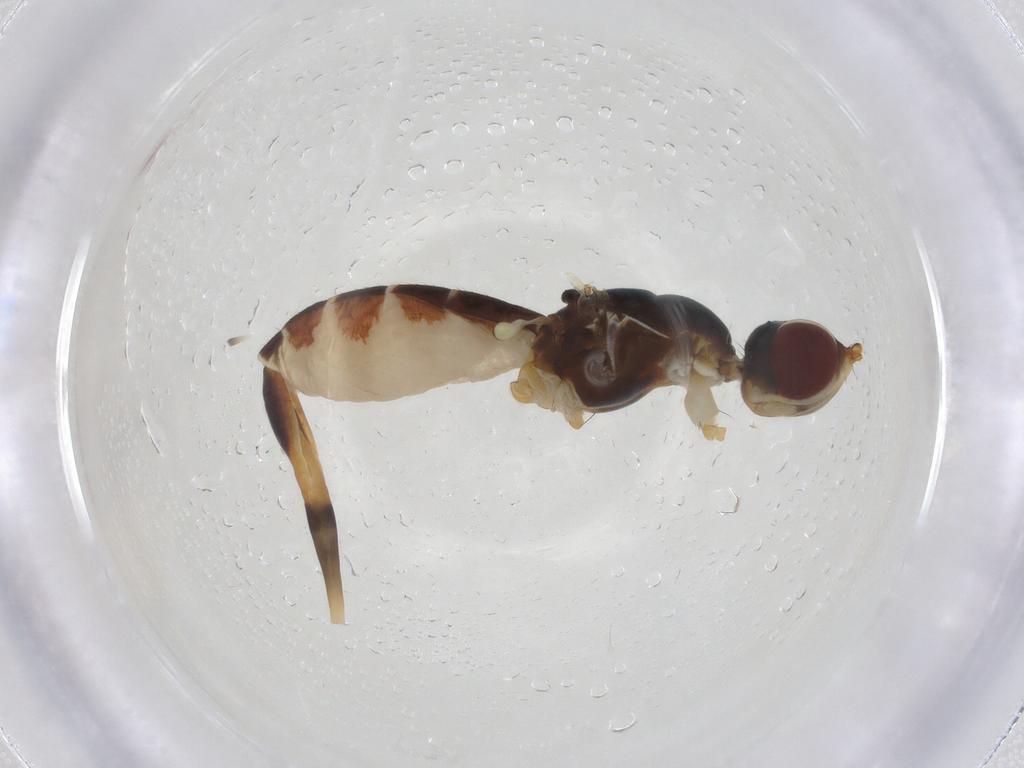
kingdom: Animalia
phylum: Arthropoda
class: Insecta
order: Diptera
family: Micropezidae
